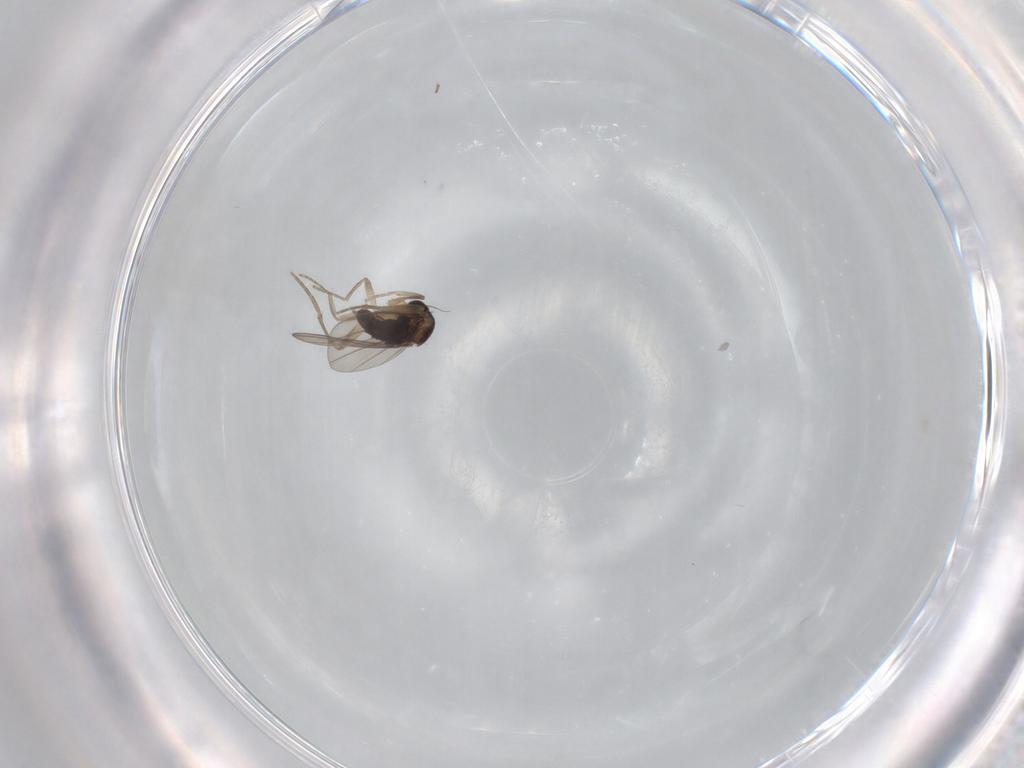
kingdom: Animalia
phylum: Arthropoda
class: Insecta
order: Diptera
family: Phoridae
